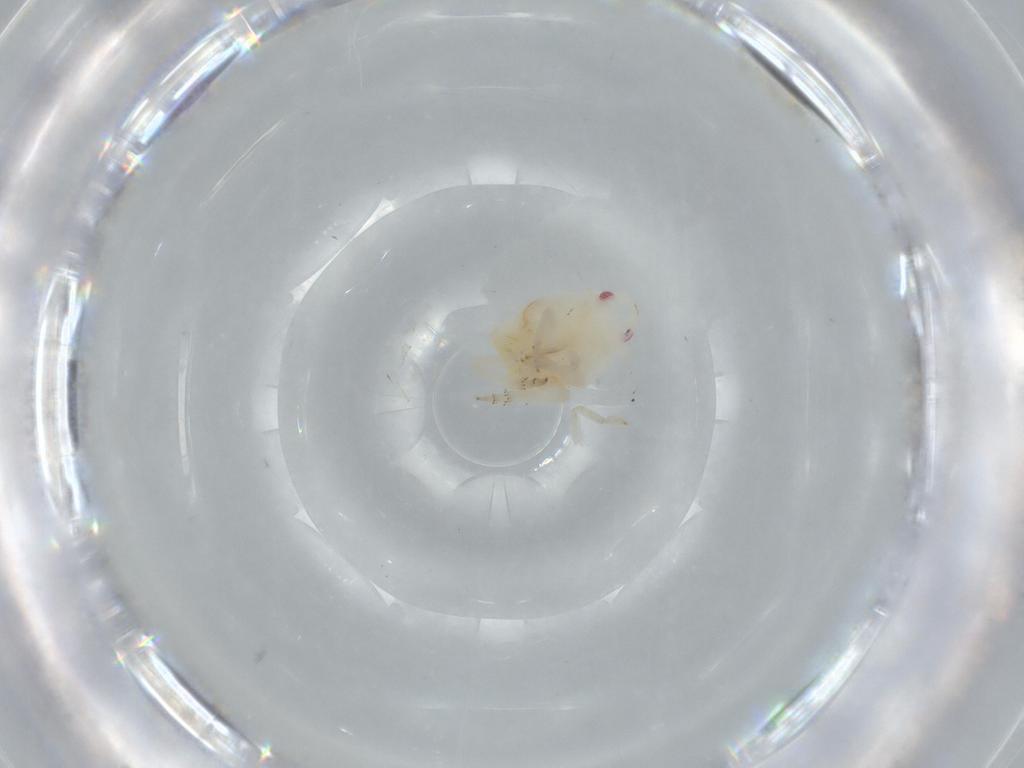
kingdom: Animalia
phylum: Arthropoda
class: Insecta
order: Hemiptera
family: Flatidae
